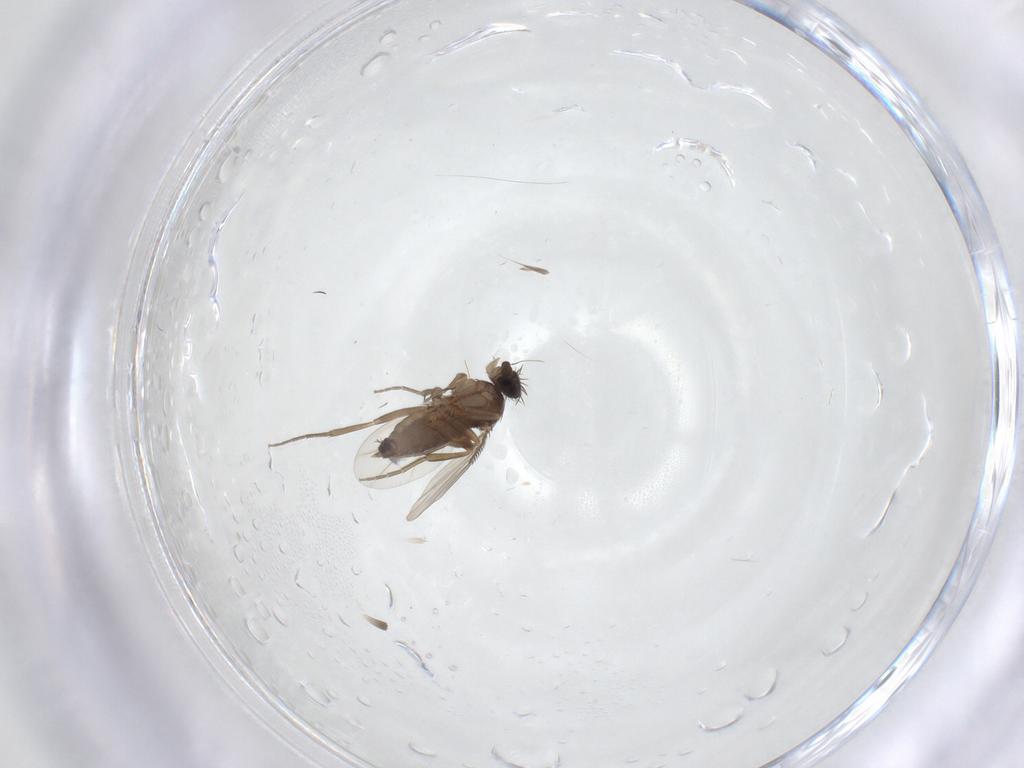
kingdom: Animalia
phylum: Arthropoda
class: Insecta
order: Diptera
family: Phoridae
